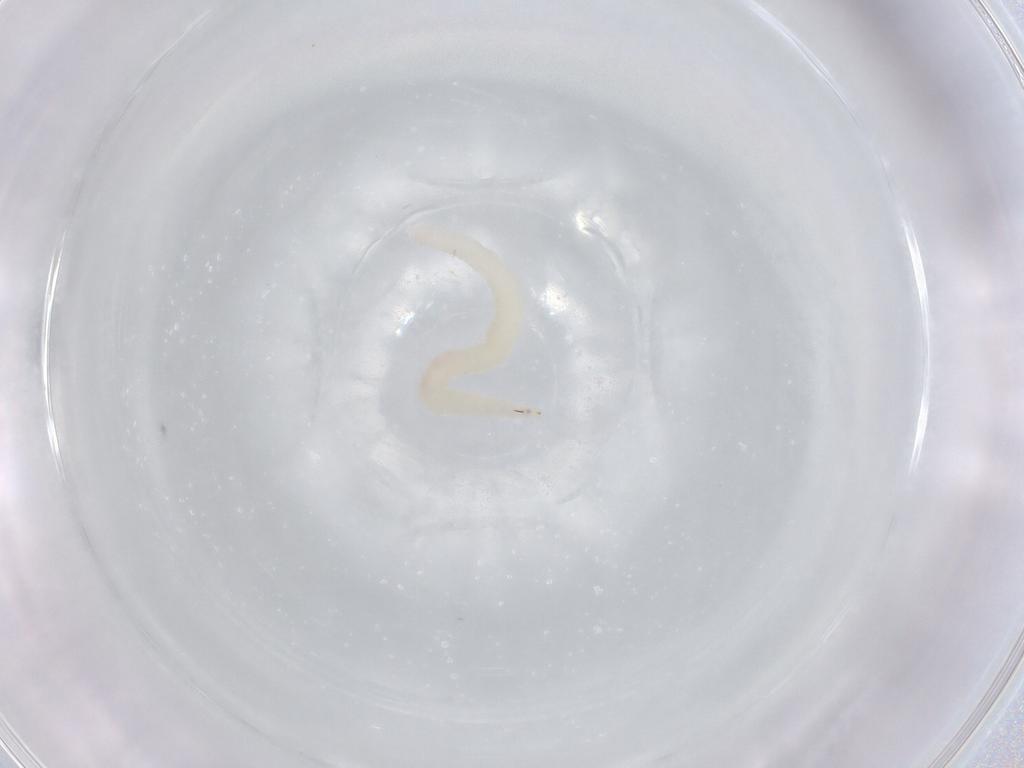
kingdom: Animalia
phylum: Arthropoda
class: Insecta
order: Diptera
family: Cecidomyiidae
